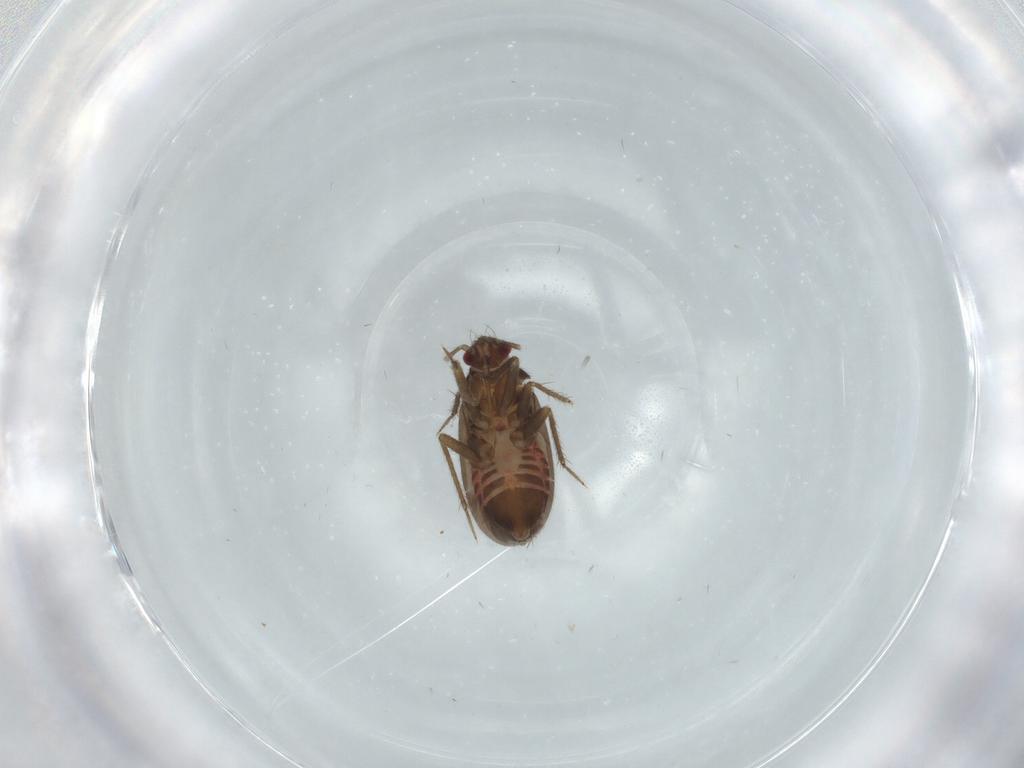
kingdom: Animalia
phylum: Arthropoda
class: Insecta
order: Hemiptera
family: Ceratocombidae
